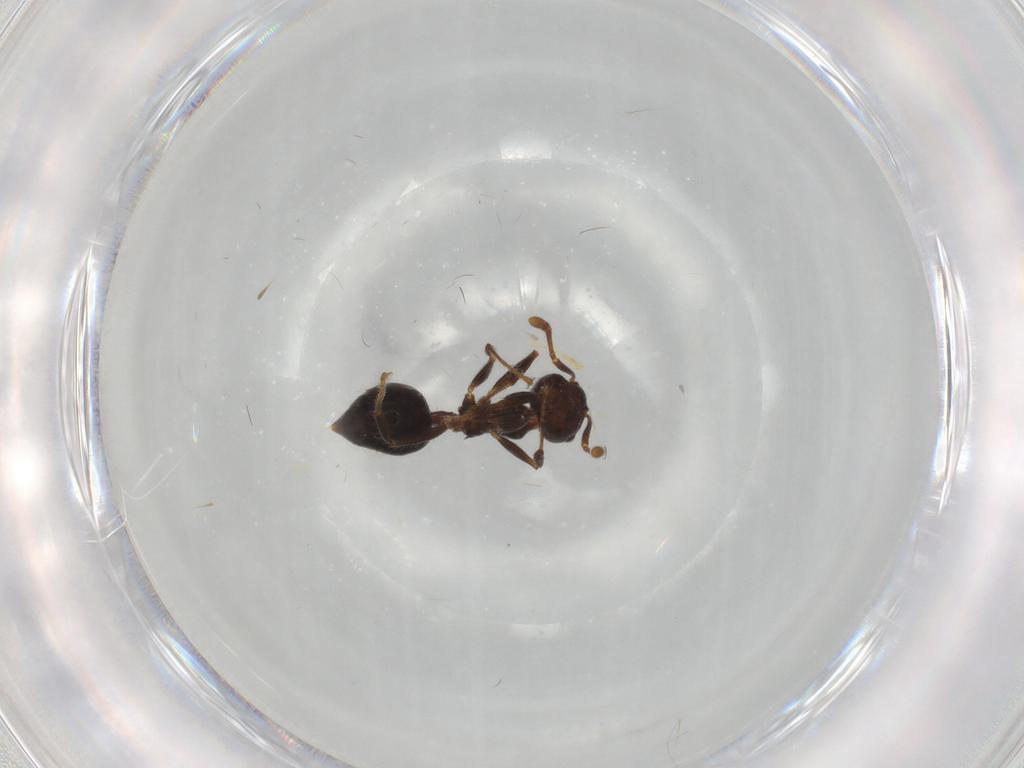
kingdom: Animalia
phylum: Arthropoda
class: Insecta
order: Hymenoptera
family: Formicidae
